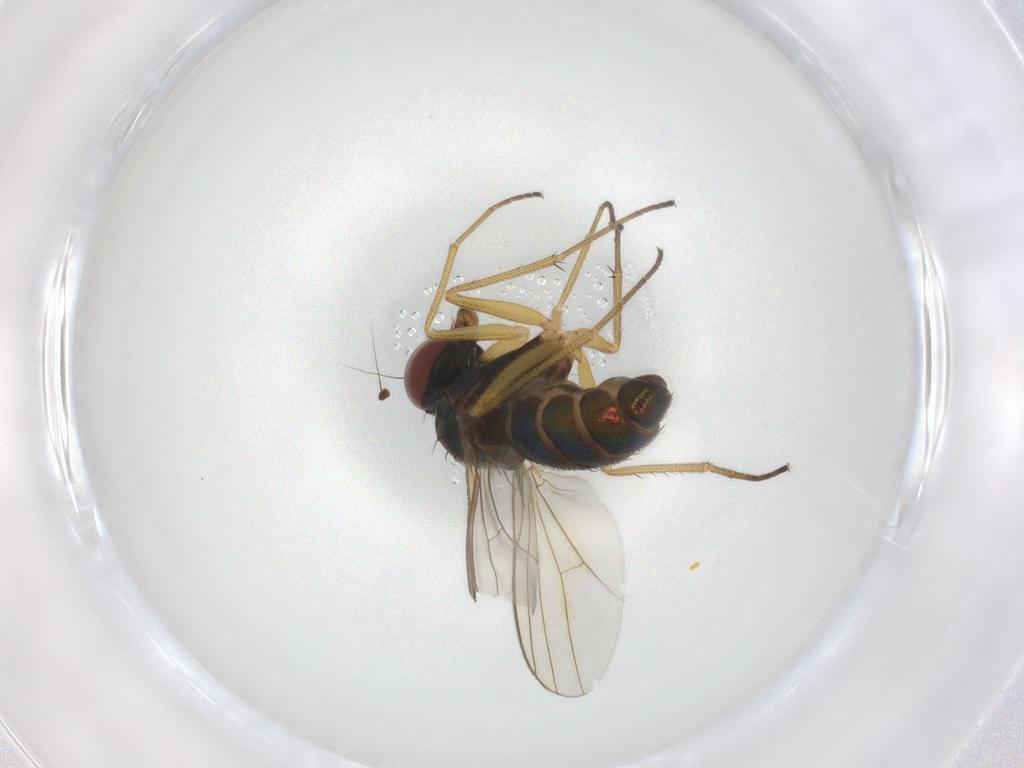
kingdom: Animalia
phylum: Arthropoda
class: Insecta
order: Diptera
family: Dolichopodidae
